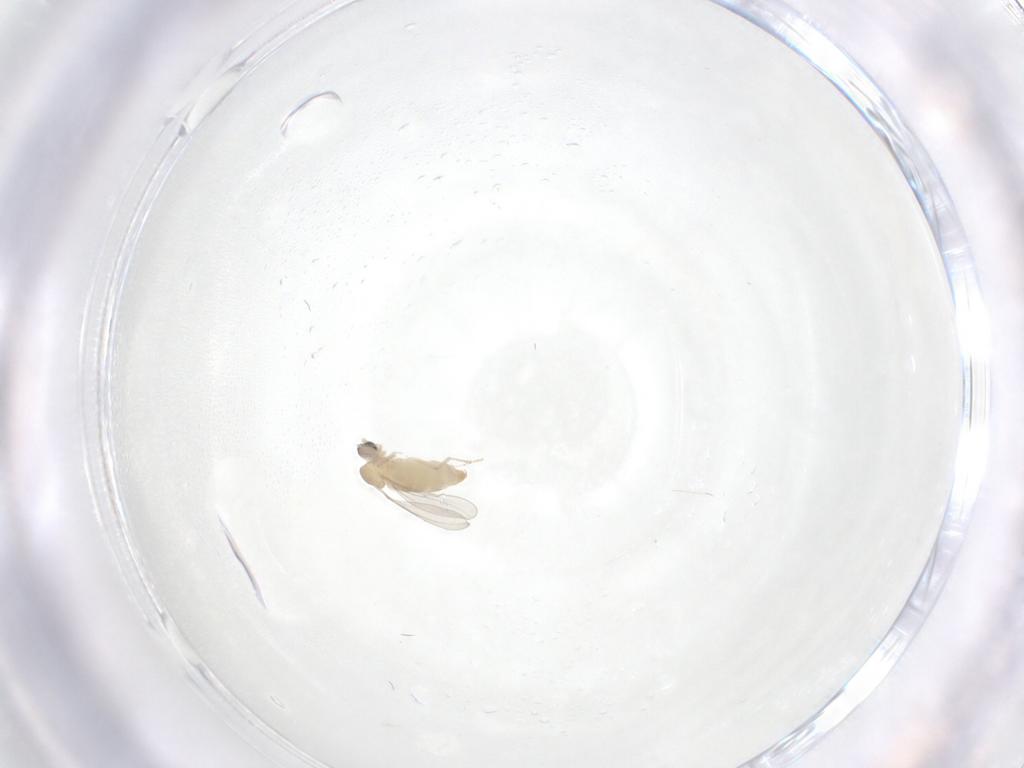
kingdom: Animalia
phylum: Arthropoda
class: Insecta
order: Diptera
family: Cecidomyiidae
